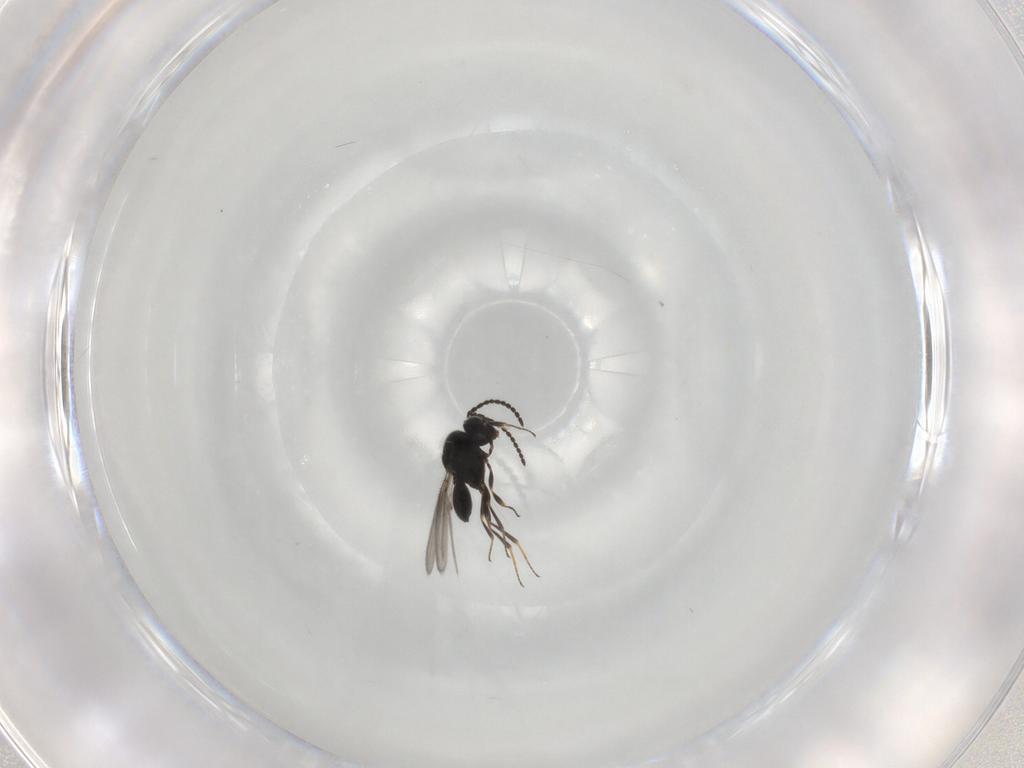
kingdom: Animalia
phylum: Arthropoda
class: Insecta
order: Hymenoptera
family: Scelionidae
